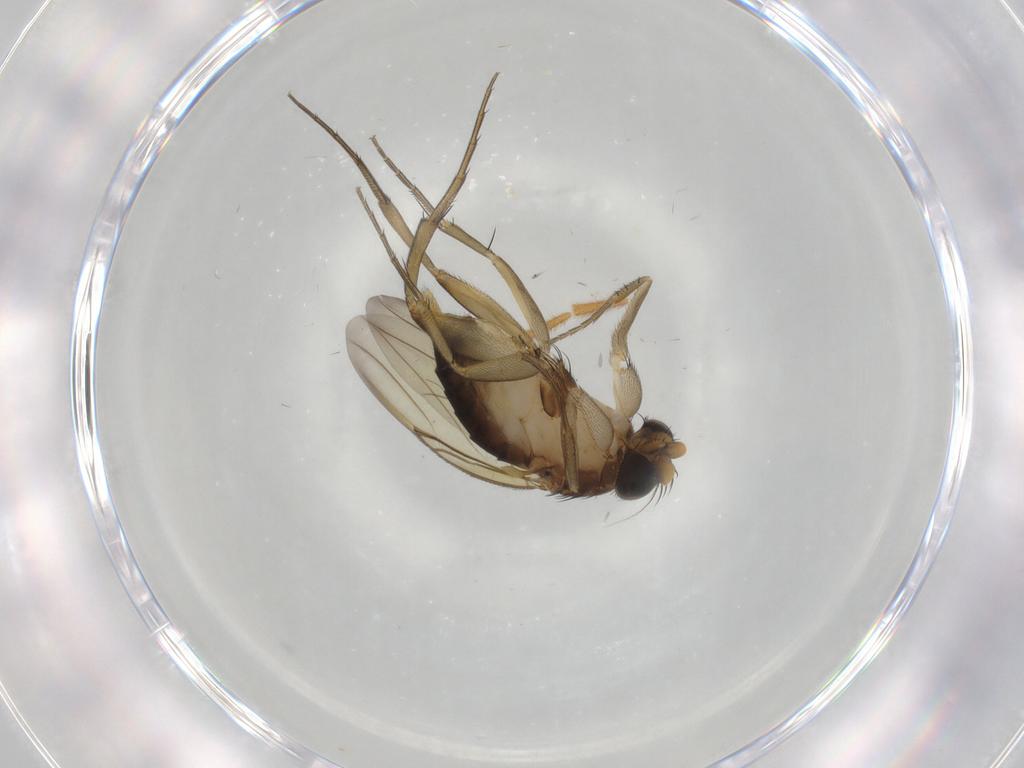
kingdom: Animalia
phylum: Arthropoda
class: Insecta
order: Diptera
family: Phoridae
